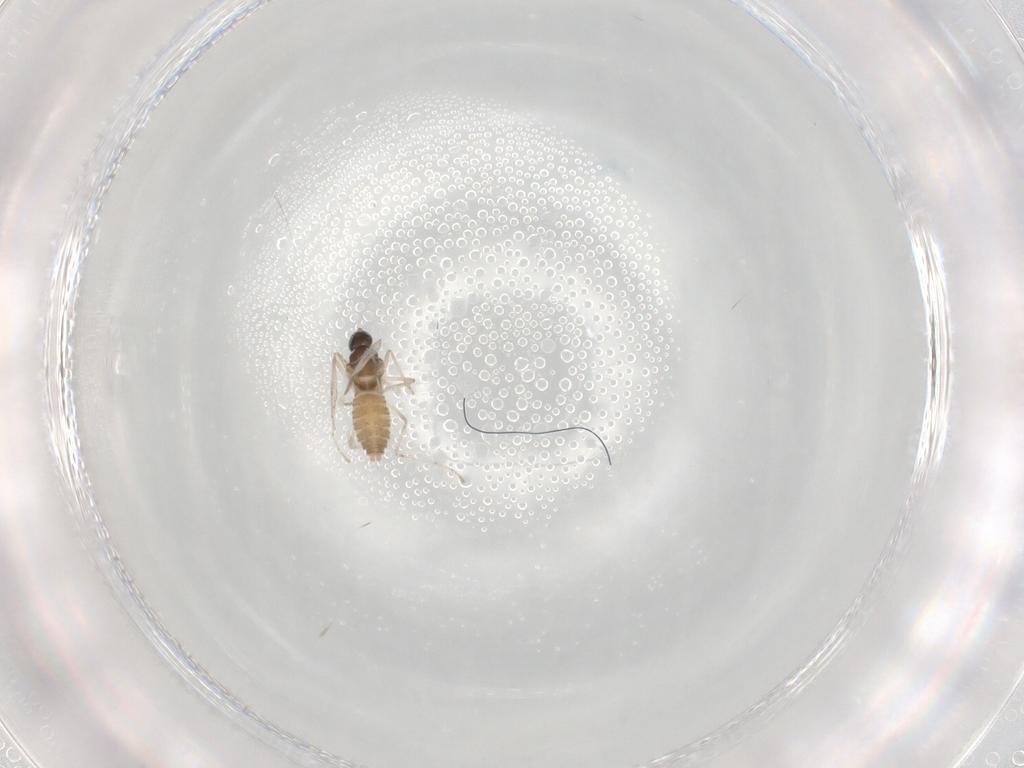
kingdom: Animalia
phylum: Arthropoda
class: Insecta
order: Diptera
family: Cecidomyiidae
